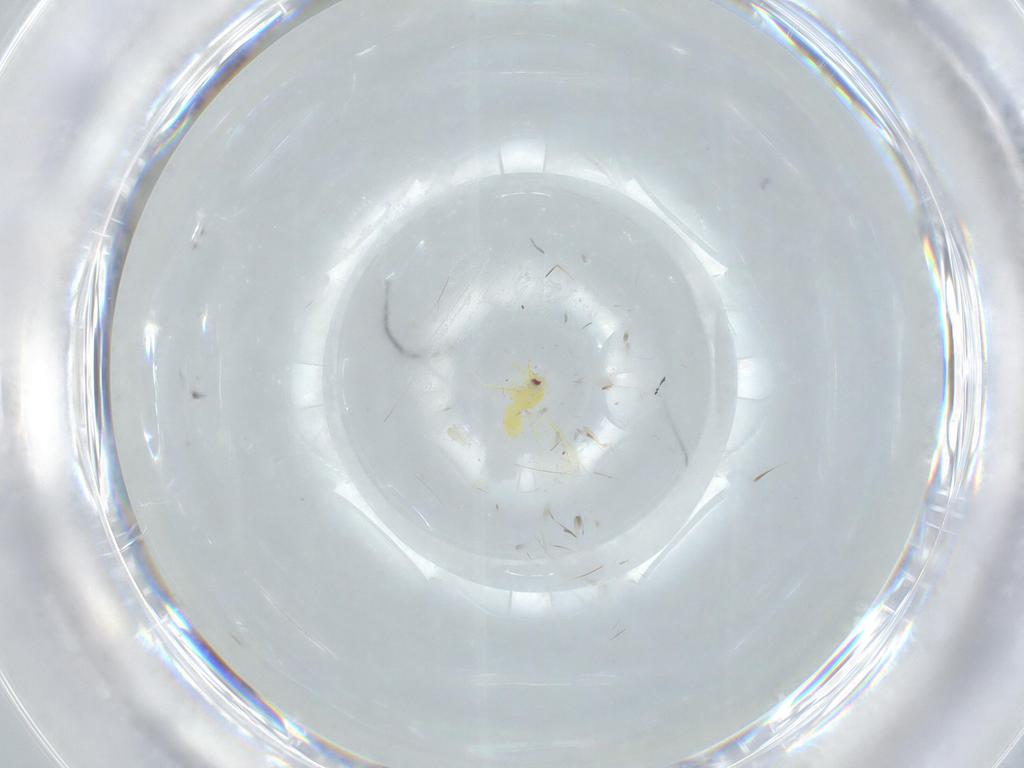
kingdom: Animalia
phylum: Arthropoda
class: Insecta
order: Hemiptera
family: Aleyrodidae
